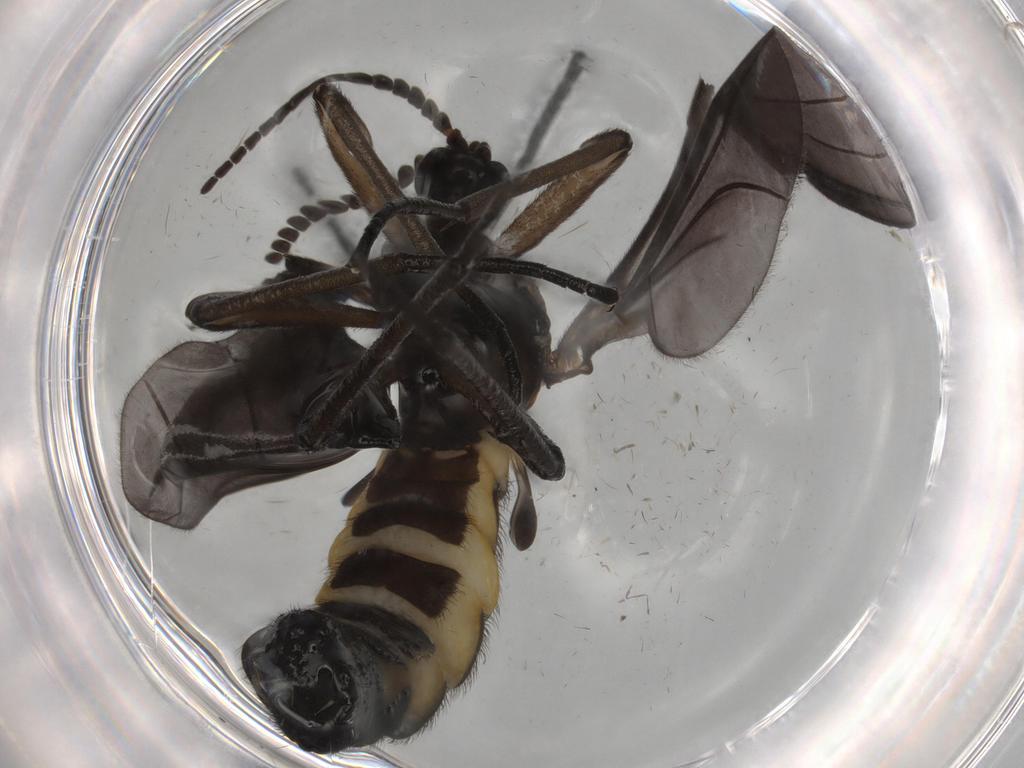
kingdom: Animalia
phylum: Arthropoda
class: Insecta
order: Diptera
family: Sciaridae
